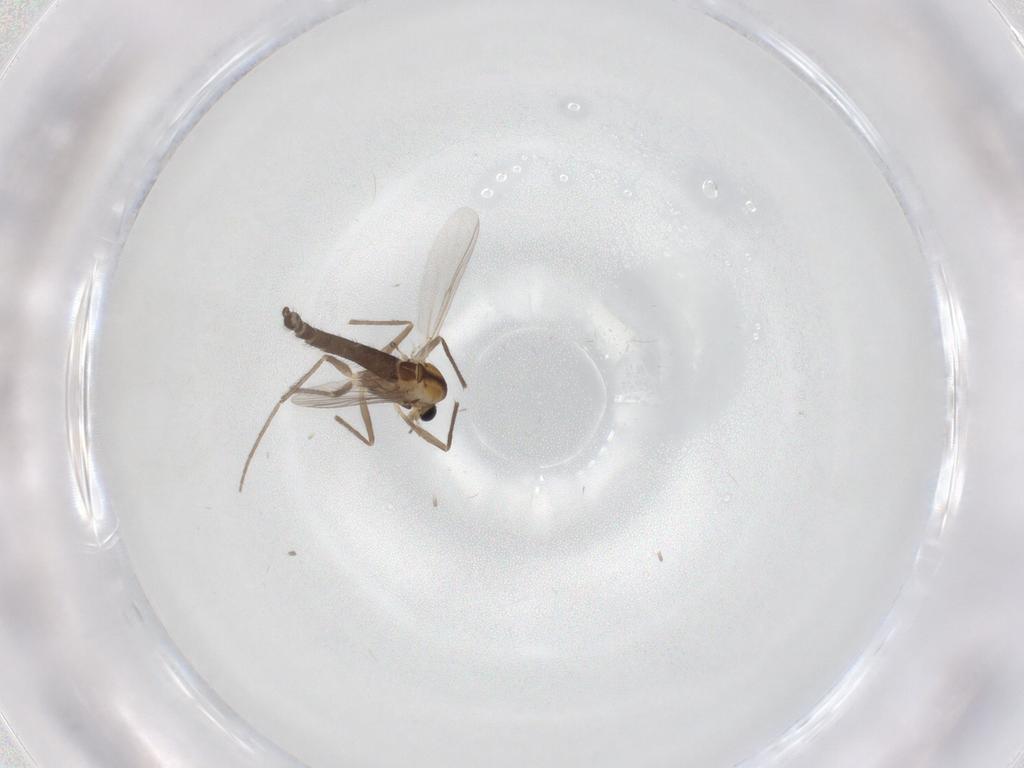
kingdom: Animalia
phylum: Arthropoda
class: Insecta
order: Diptera
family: Chironomidae
